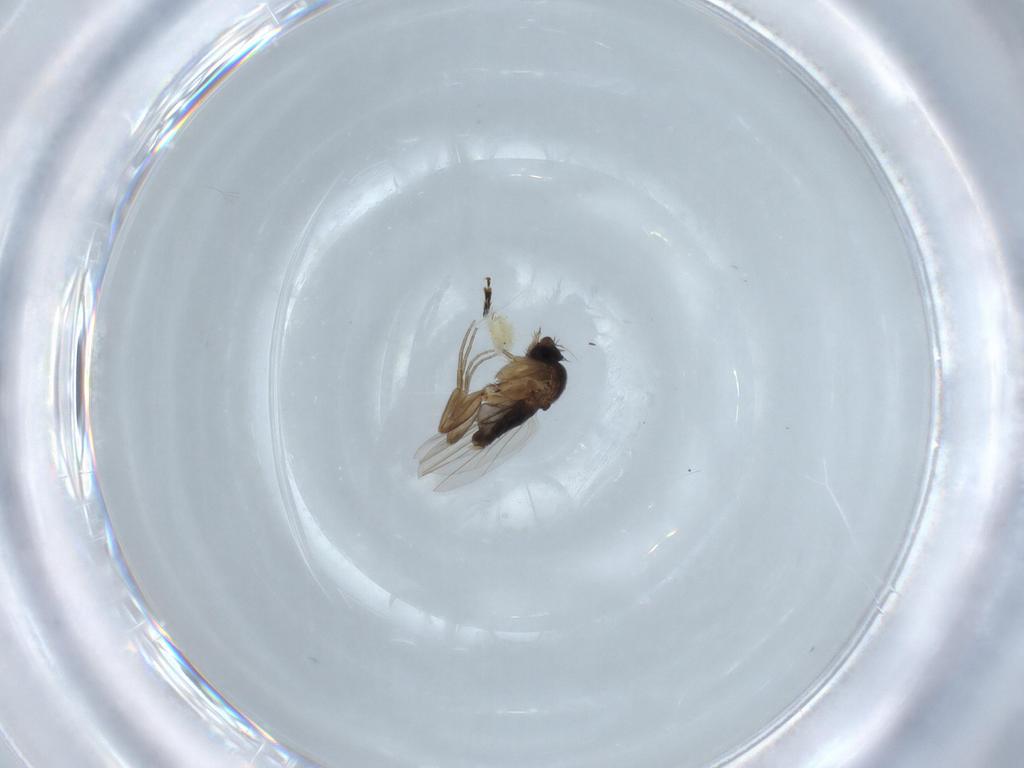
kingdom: Animalia
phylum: Arthropoda
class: Insecta
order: Diptera
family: Phoridae
